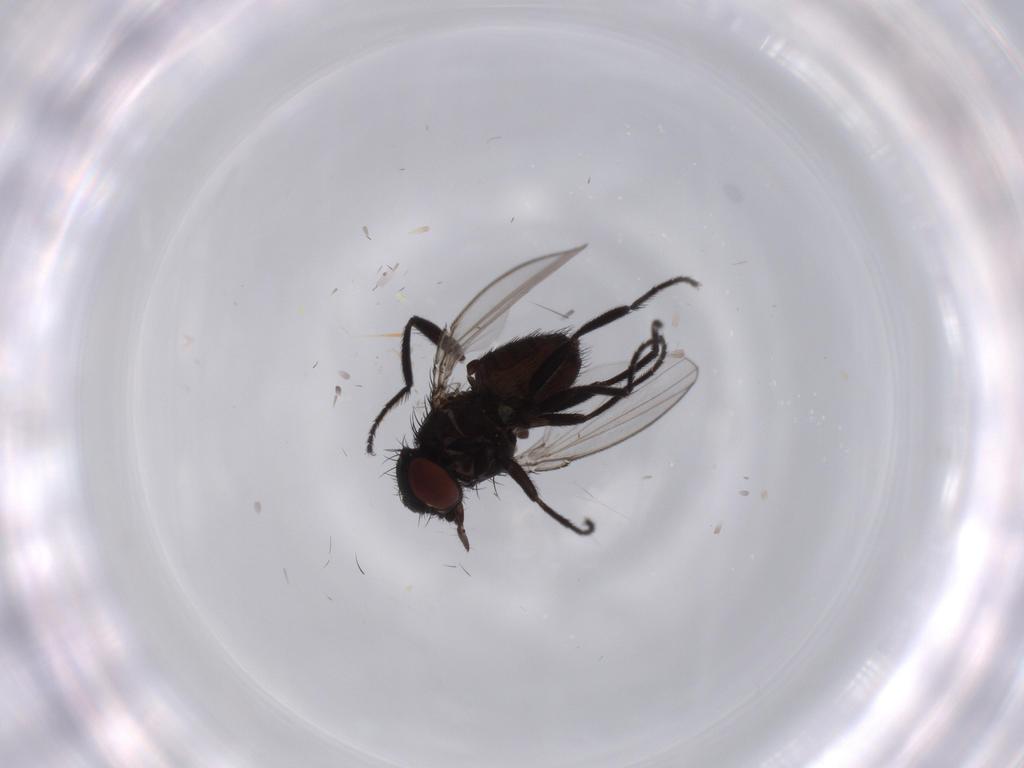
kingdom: Animalia
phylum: Arthropoda
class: Insecta
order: Diptera
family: Milichiidae
